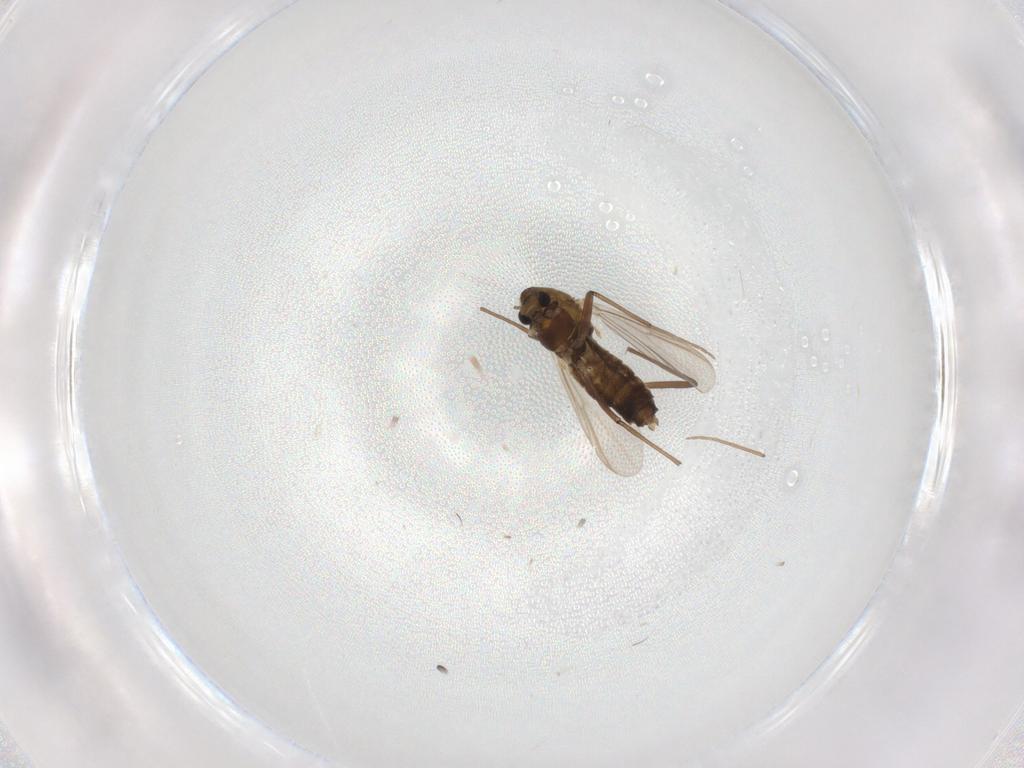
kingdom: Animalia
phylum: Arthropoda
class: Insecta
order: Diptera
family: Chironomidae
